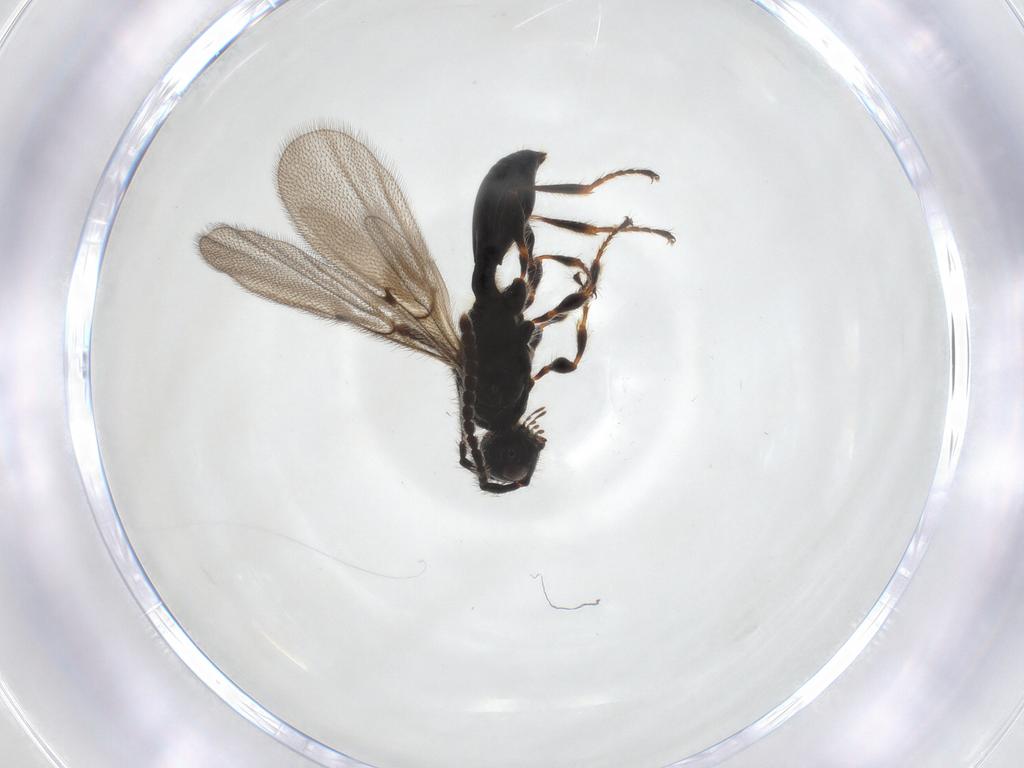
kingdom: Animalia
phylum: Arthropoda
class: Insecta
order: Hymenoptera
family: Diapriidae
